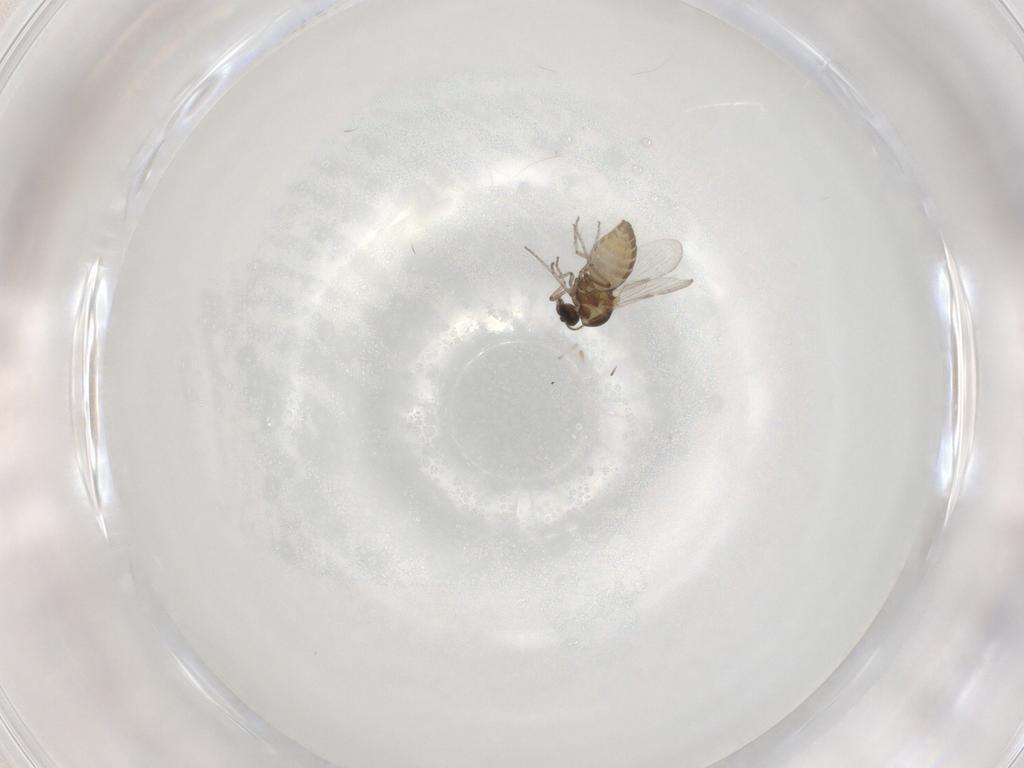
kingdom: Animalia
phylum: Arthropoda
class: Insecta
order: Diptera
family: Ceratopogonidae
